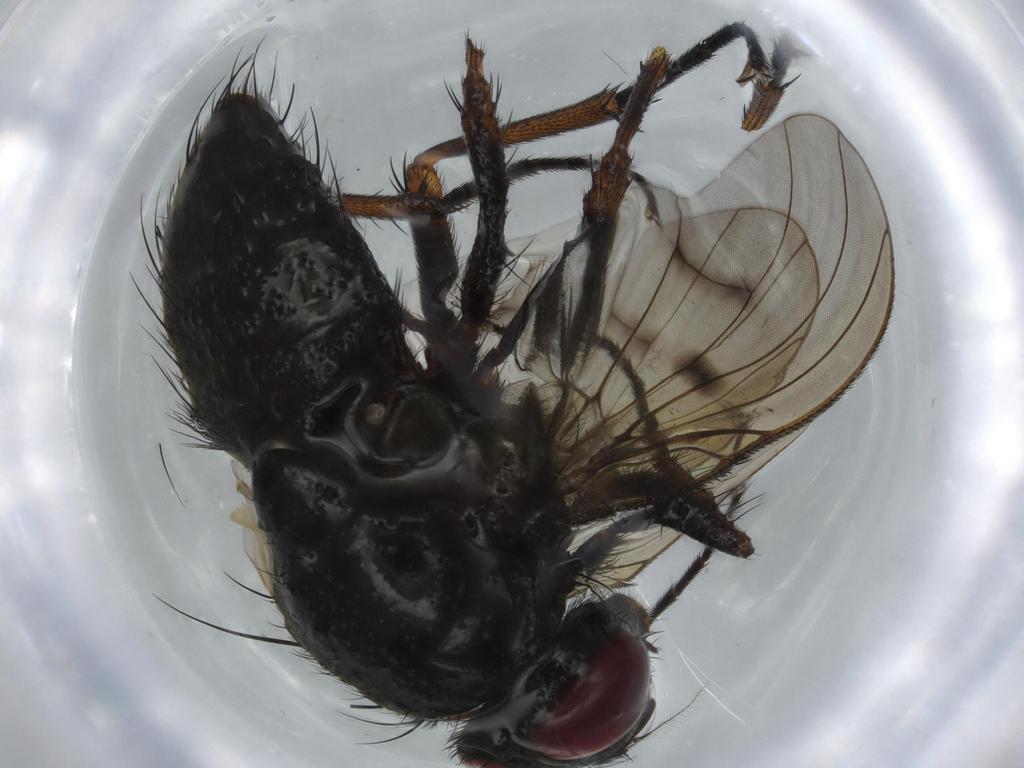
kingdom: Animalia
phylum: Arthropoda
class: Insecta
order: Diptera
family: Muscidae
